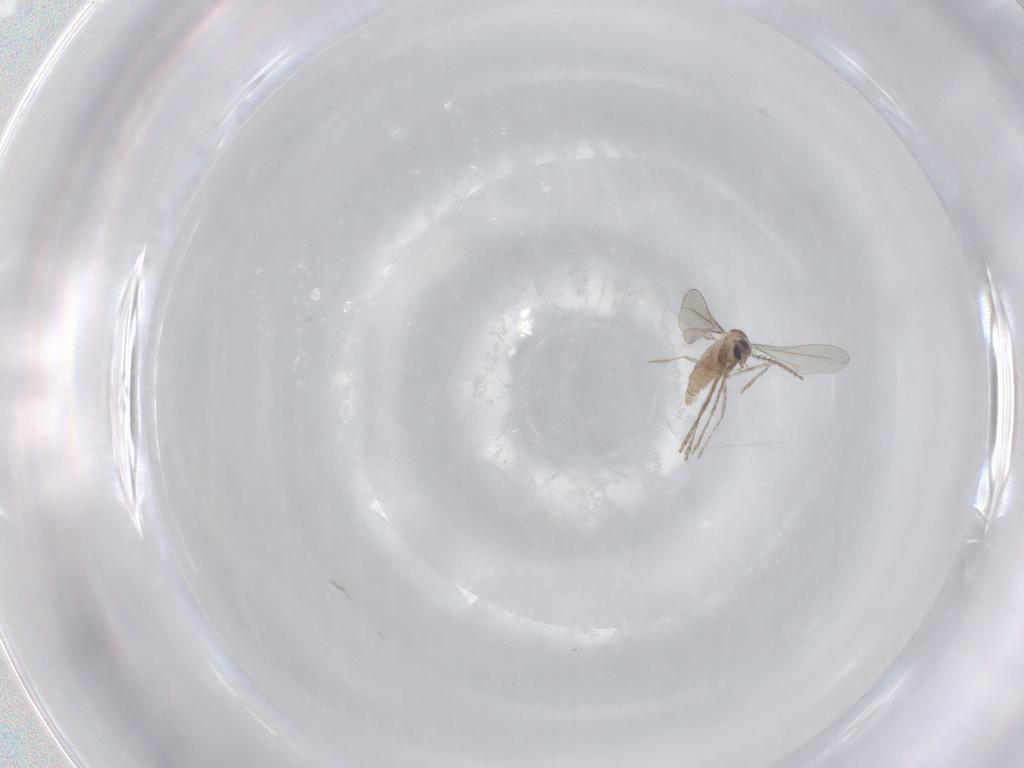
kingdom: Animalia
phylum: Arthropoda
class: Insecta
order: Diptera
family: Cecidomyiidae
